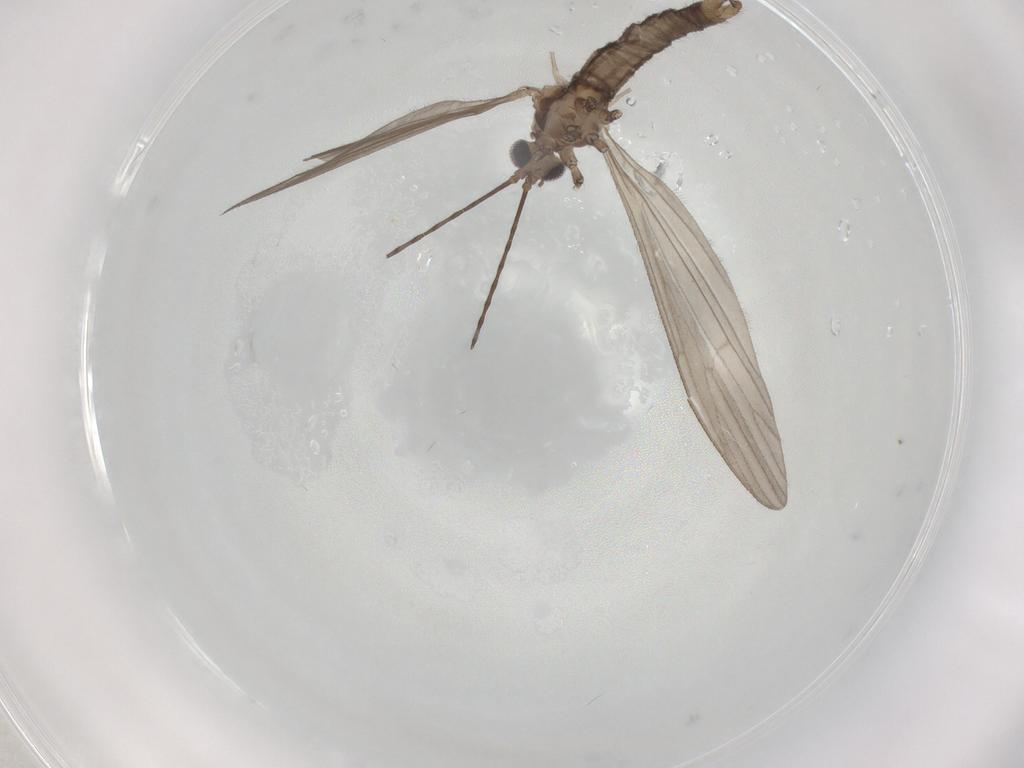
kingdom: Animalia
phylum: Arthropoda
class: Insecta
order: Diptera
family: Limoniidae
